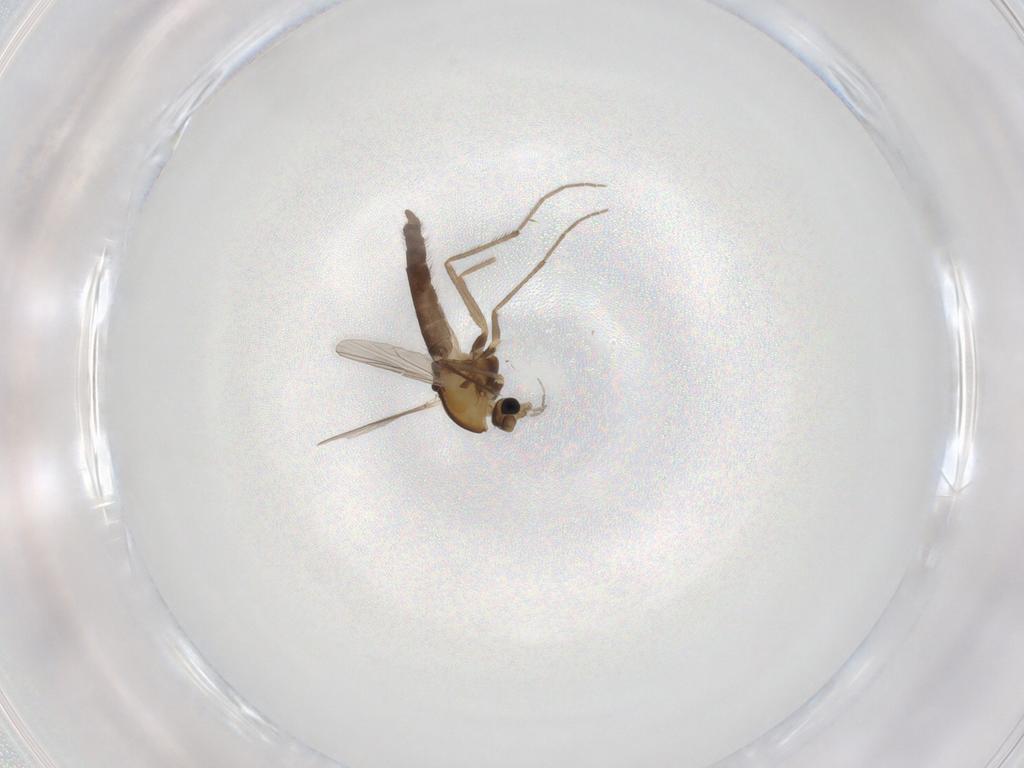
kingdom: Animalia
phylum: Arthropoda
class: Insecta
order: Diptera
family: Chironomidae
